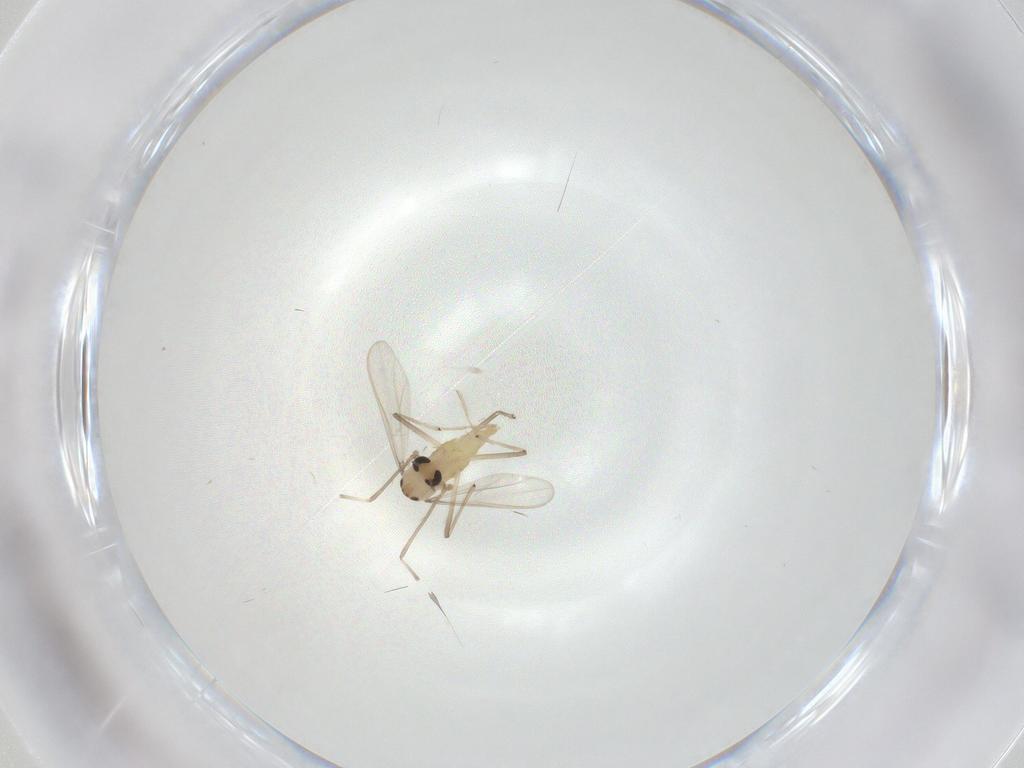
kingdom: Animalia
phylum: Arthropoda
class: Insecta
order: Diptera
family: Chironomidae
